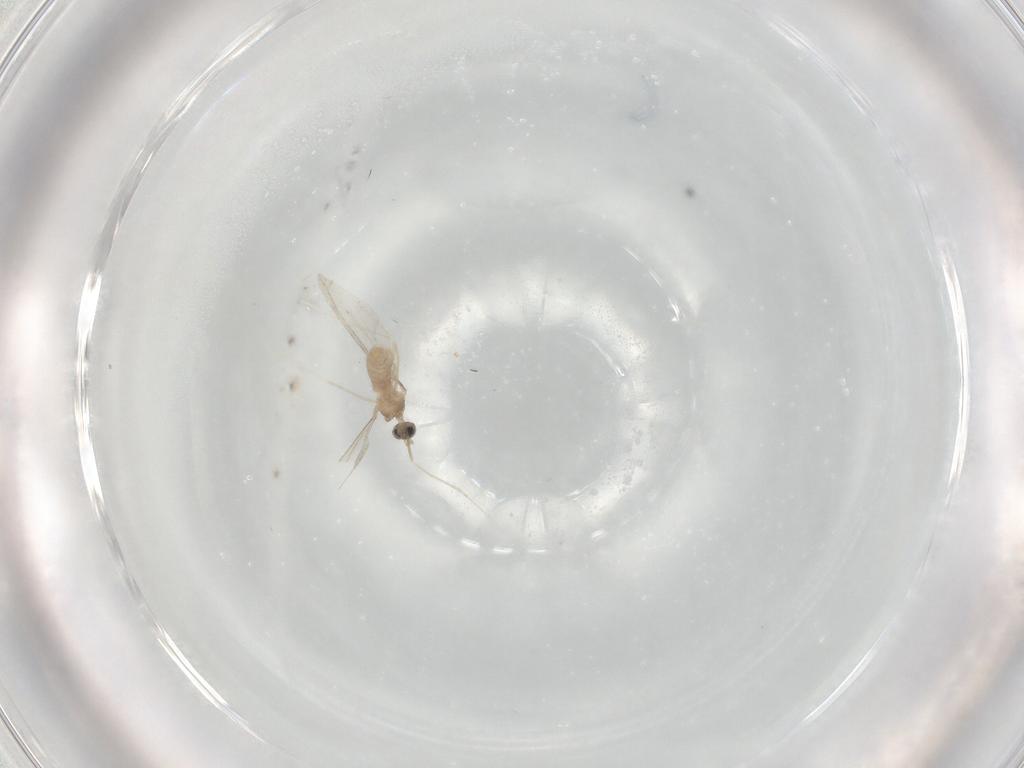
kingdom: Animalia
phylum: Arthropoda
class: Insecta
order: Diptera
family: Cecidomyiidae
